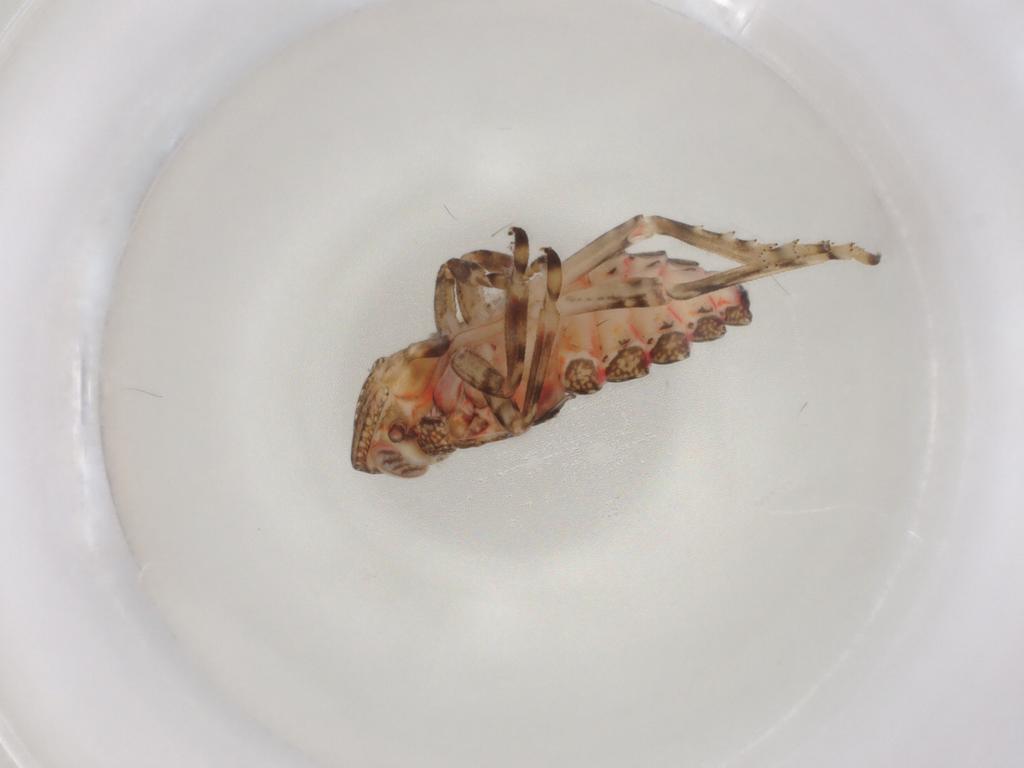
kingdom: Animalia
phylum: Arthropoda
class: Insecta
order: Hemiptera
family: Tropiduchidae
